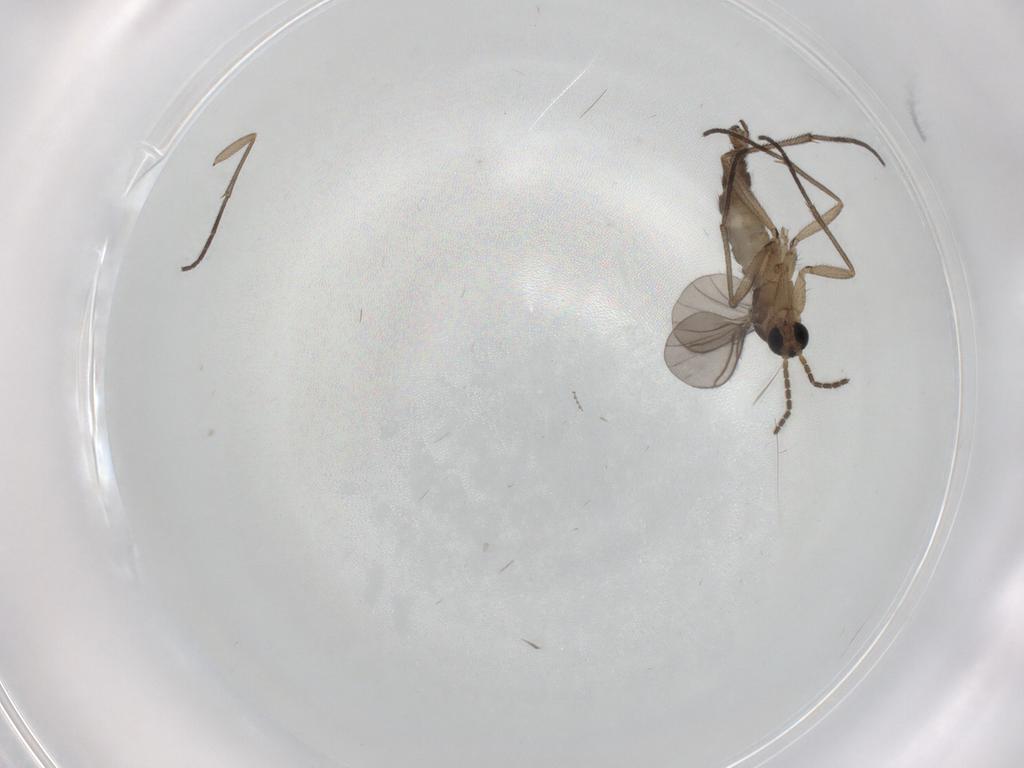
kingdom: Animalia
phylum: Arthropoda
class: Insecta
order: Diptera
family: Sciaridae
